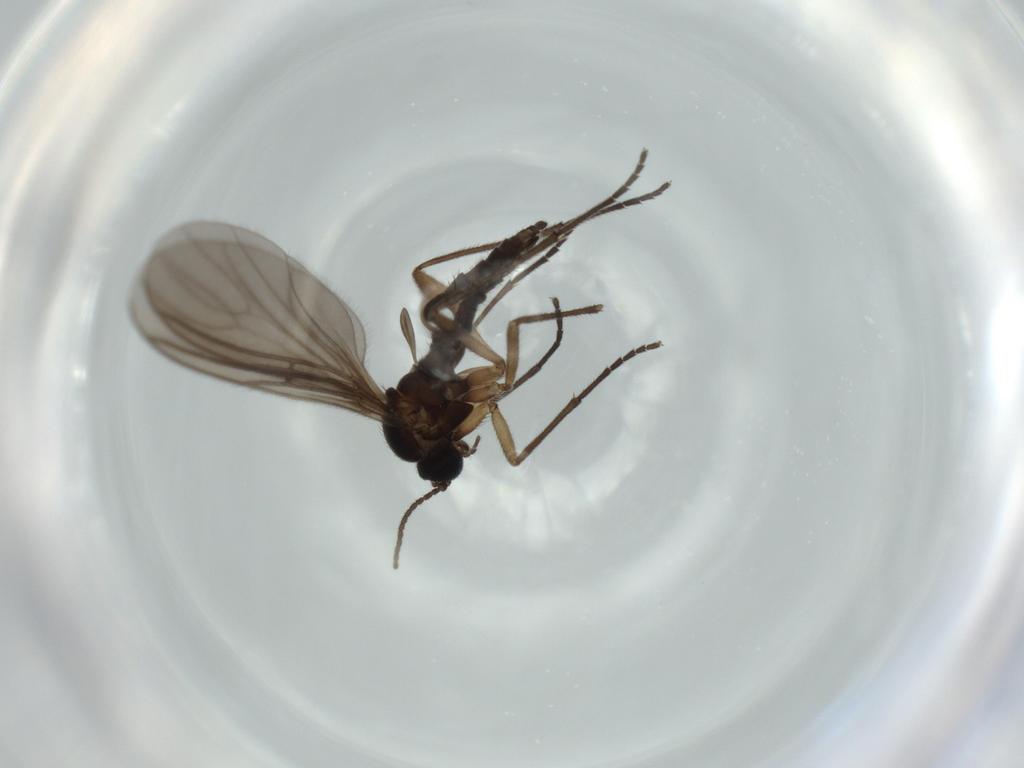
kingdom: Animalia
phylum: Arthropoda
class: Insecta
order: Diptera
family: Sciaridae
